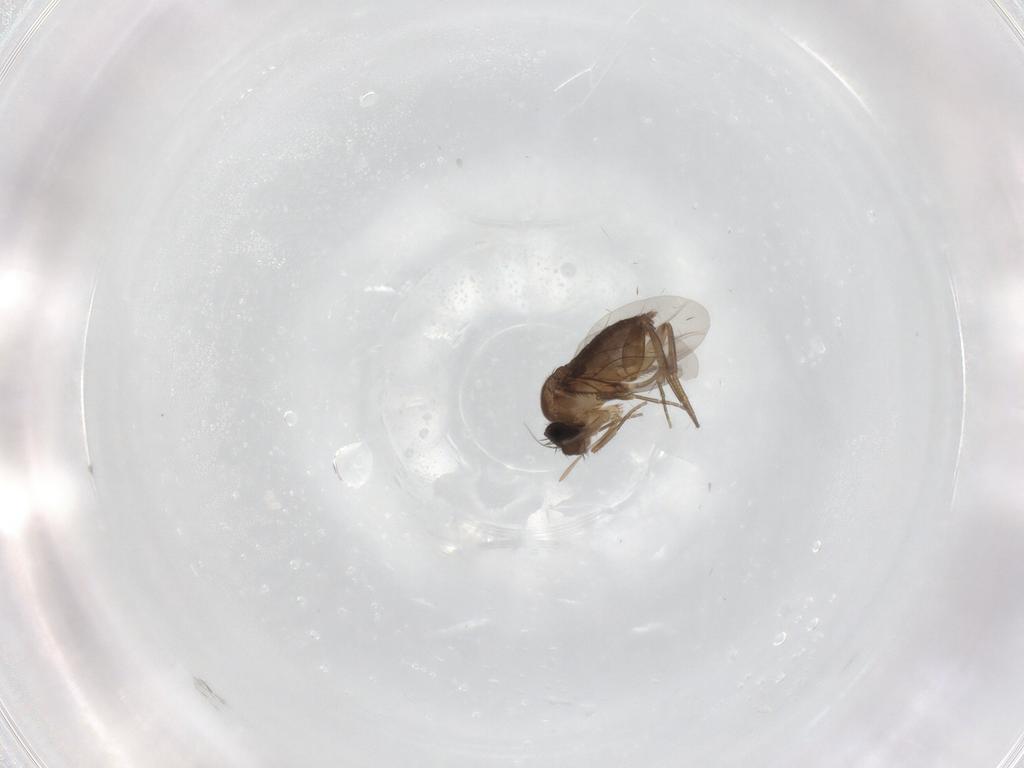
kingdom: Animalia
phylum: Arthropoda
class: Insecta
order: Diptera
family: Phoridae
